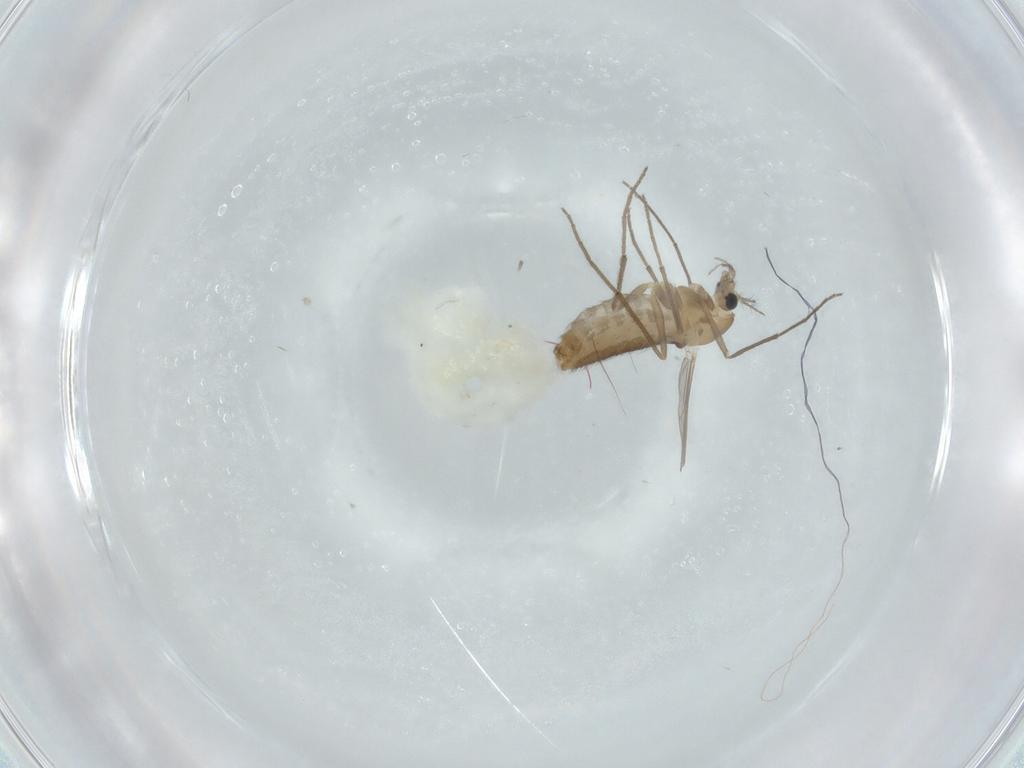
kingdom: Animalia
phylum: Arthropoda
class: Insecta
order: Diptera
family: Chironomidae
